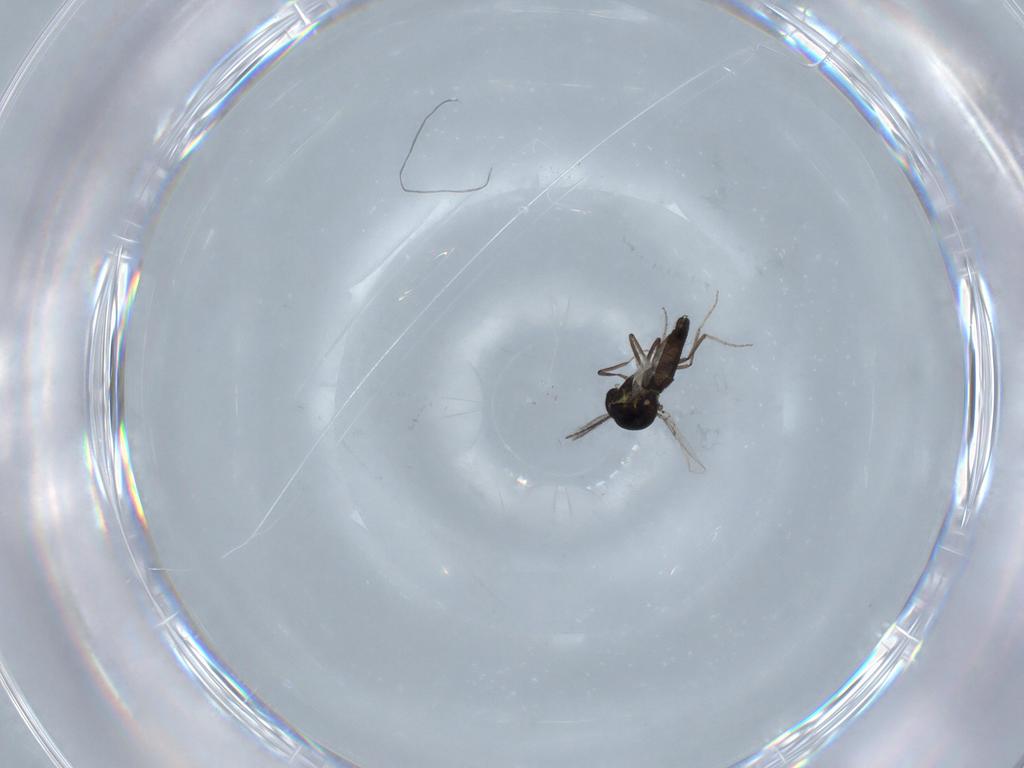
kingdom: Animalia
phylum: Arthropoda
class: Insecta
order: Diptera
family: Ceratopogonidae
